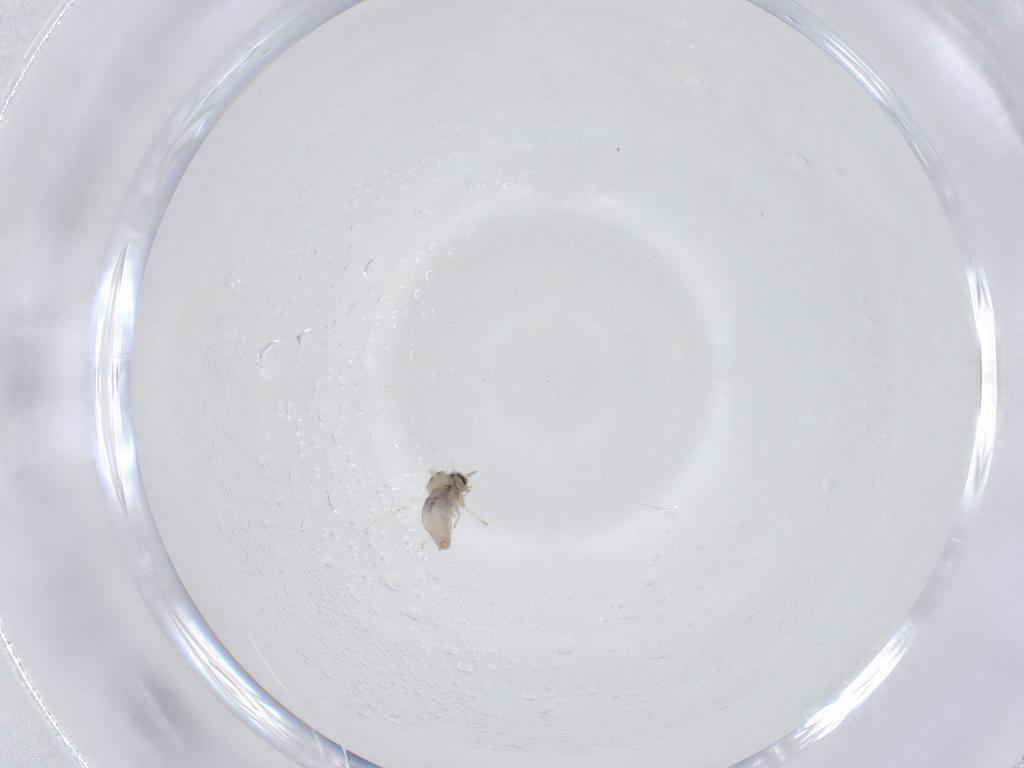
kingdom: Animalia
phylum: Arthropoda
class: Insecta
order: Diptera
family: Cecidomyiidae
